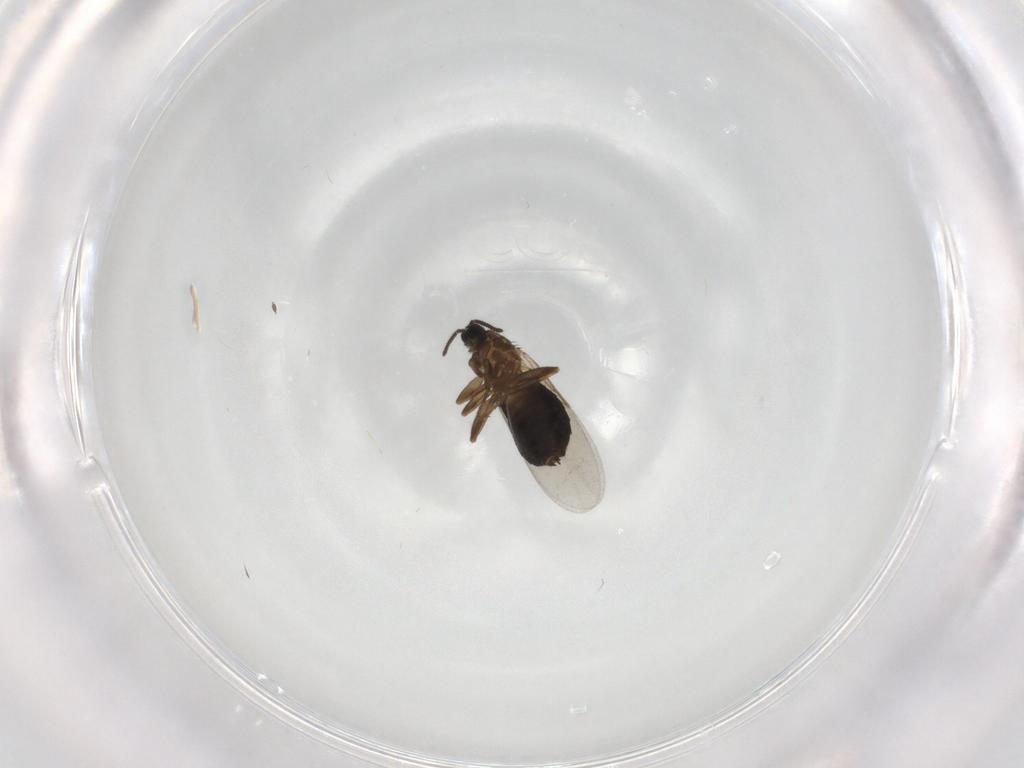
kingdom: Animalia
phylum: Arthropoda
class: Insecta
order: Diptera
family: Scatopsidae
